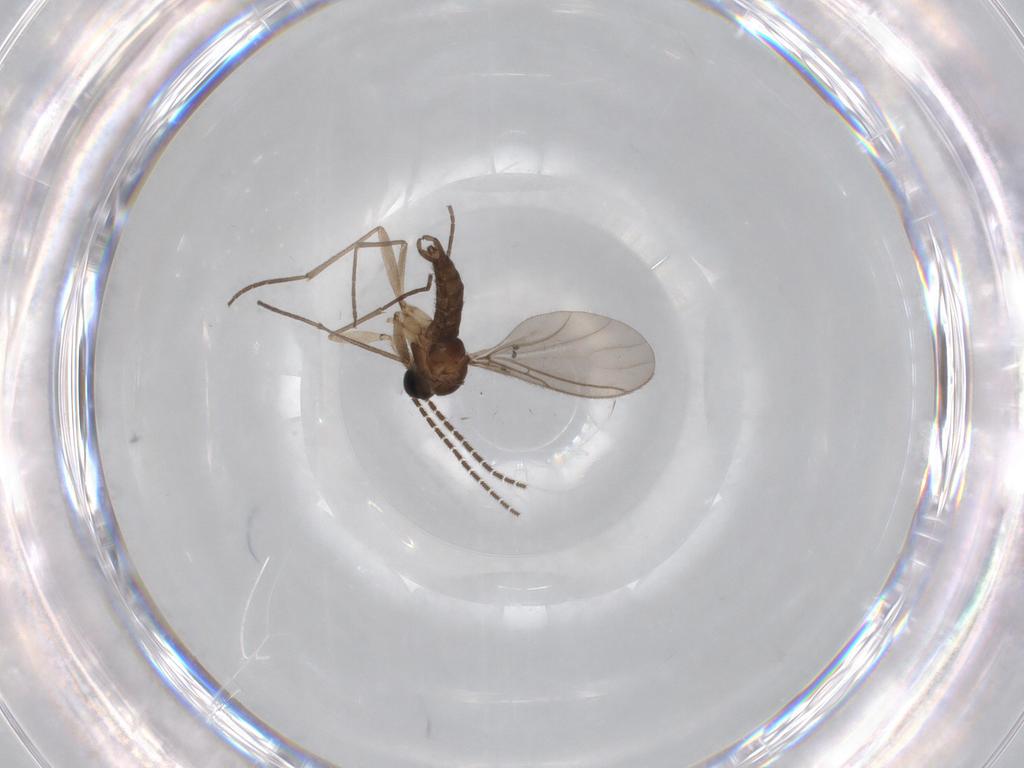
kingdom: Animalia
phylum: Arthropoda
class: Insecta
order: Diptera
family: Sciaridae
